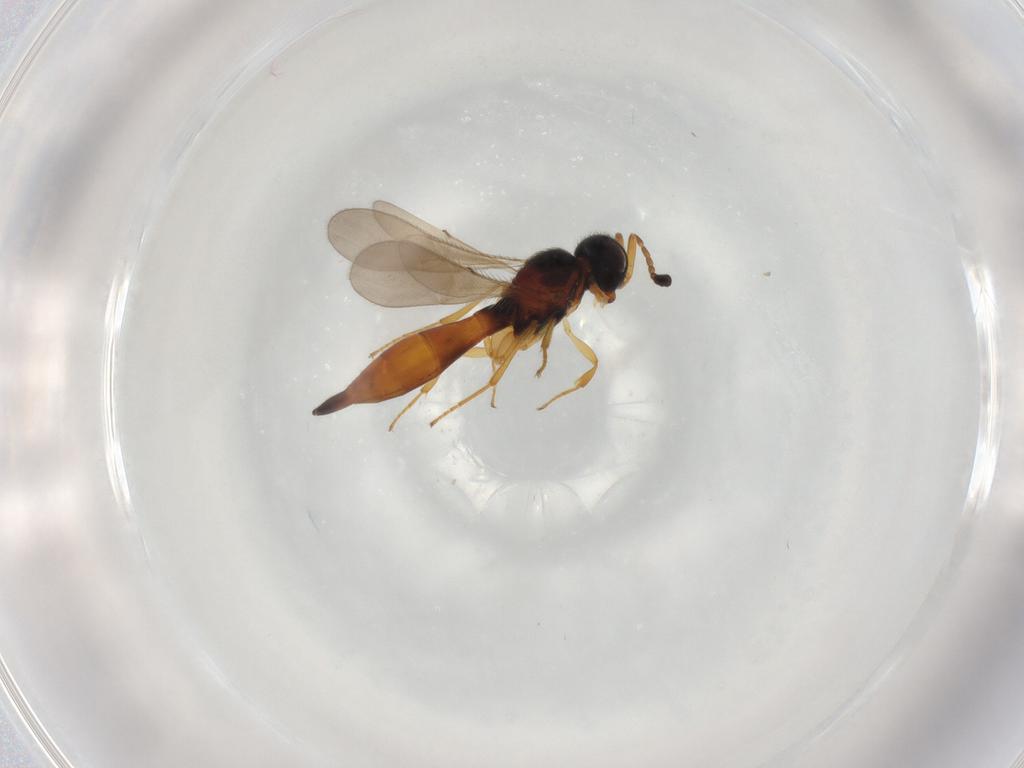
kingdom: Animalia
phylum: Arthropoda
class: Insecta
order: Hymenoptera
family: Scelionidae
